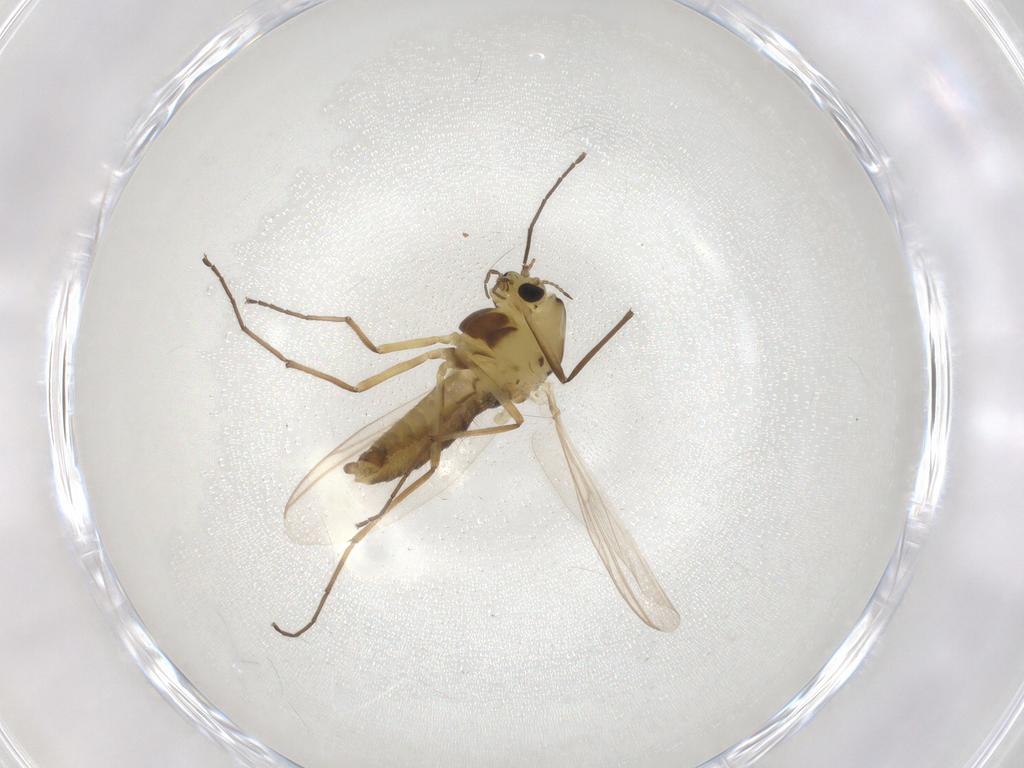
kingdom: Animalia
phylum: Arthropoda
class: Insecta
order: Diptera
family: Chironomidae
